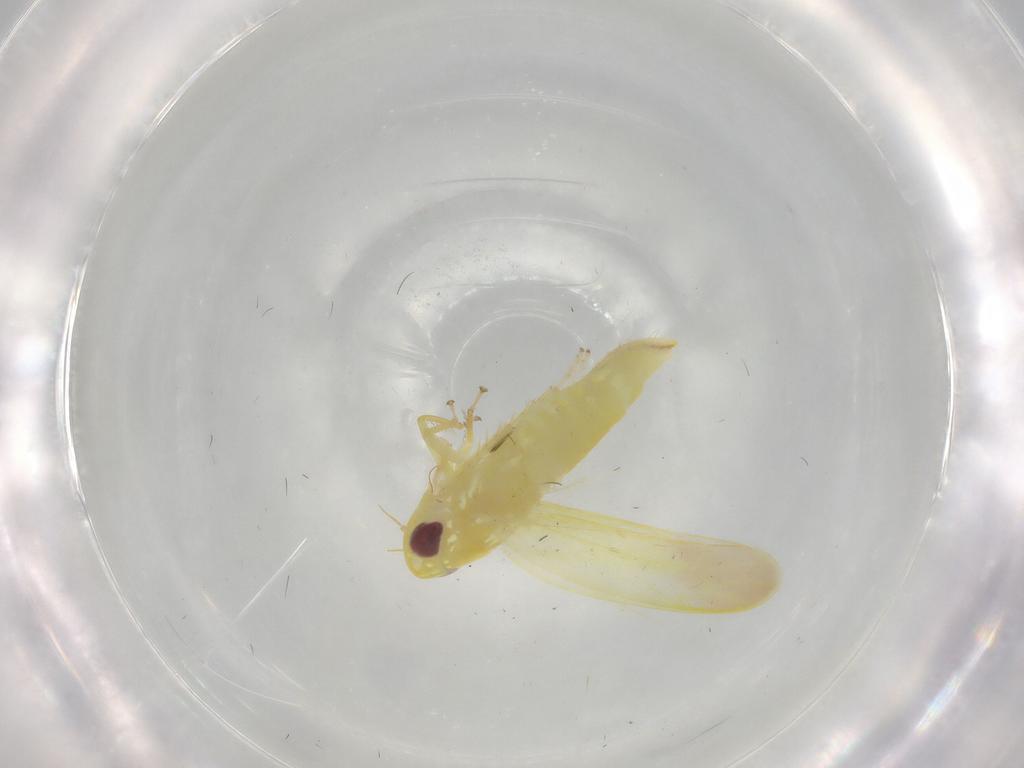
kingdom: Animalia
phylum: Arthropoda
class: Insecta
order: Hemiptera
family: Cicadellidae
